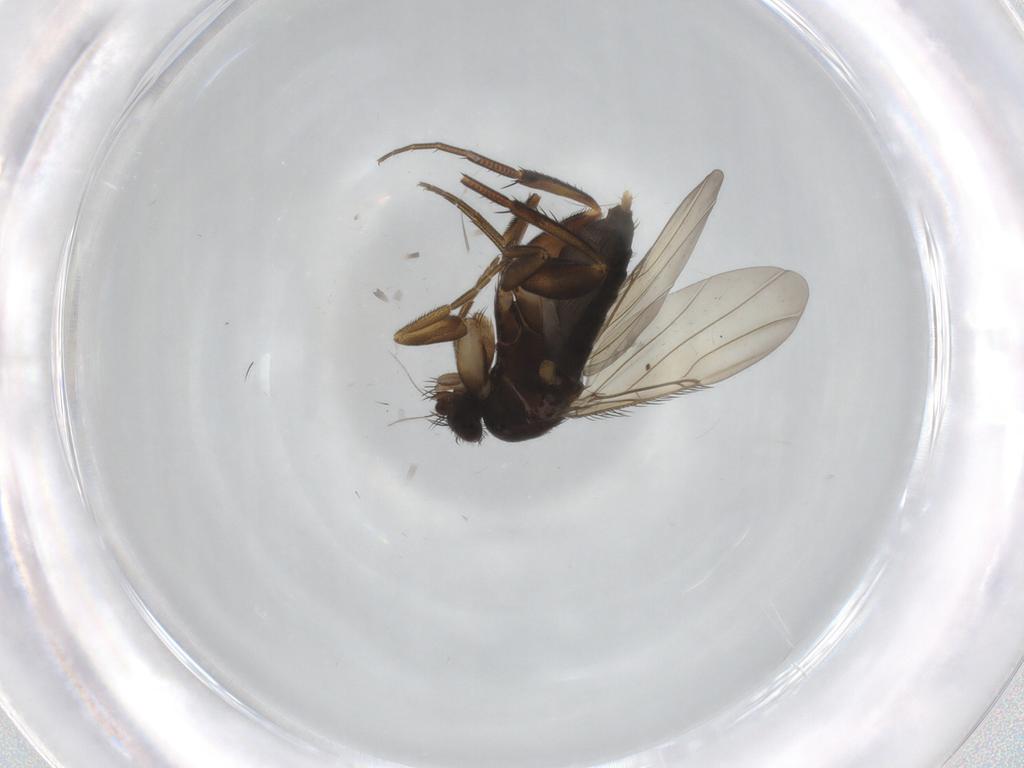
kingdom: Animalia
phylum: Arthropoda
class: Insecta
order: Diptera
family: Phoridae
